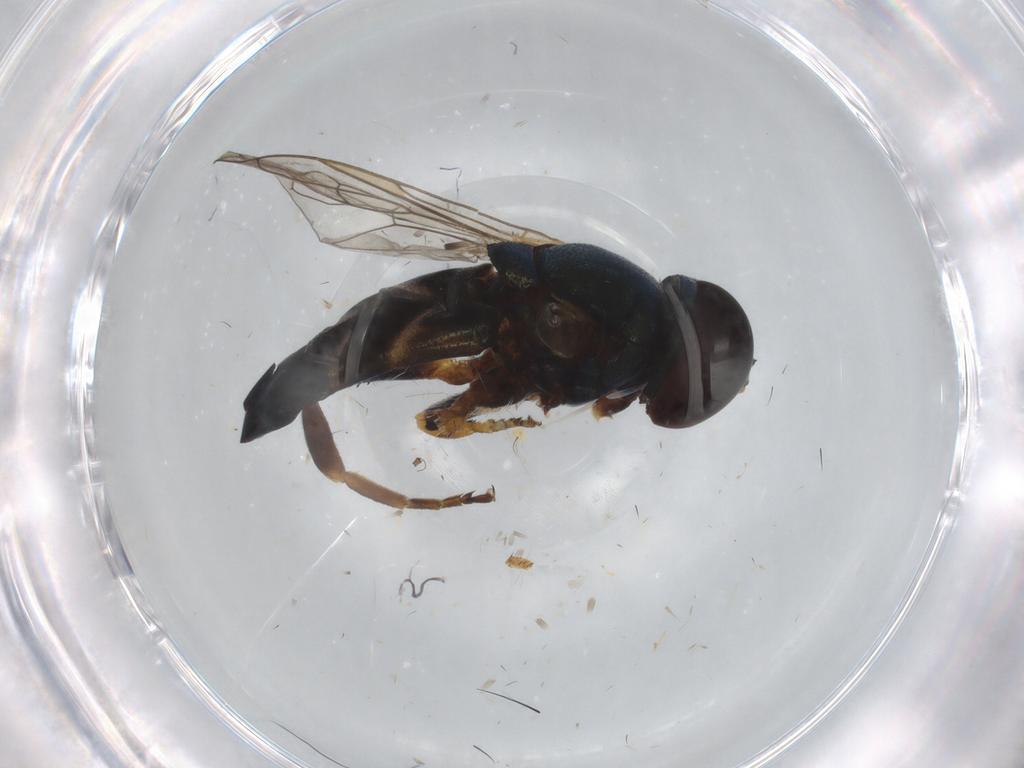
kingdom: Animalia
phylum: Arthropoda
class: Insecta
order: Diptera
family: Syrphidae
